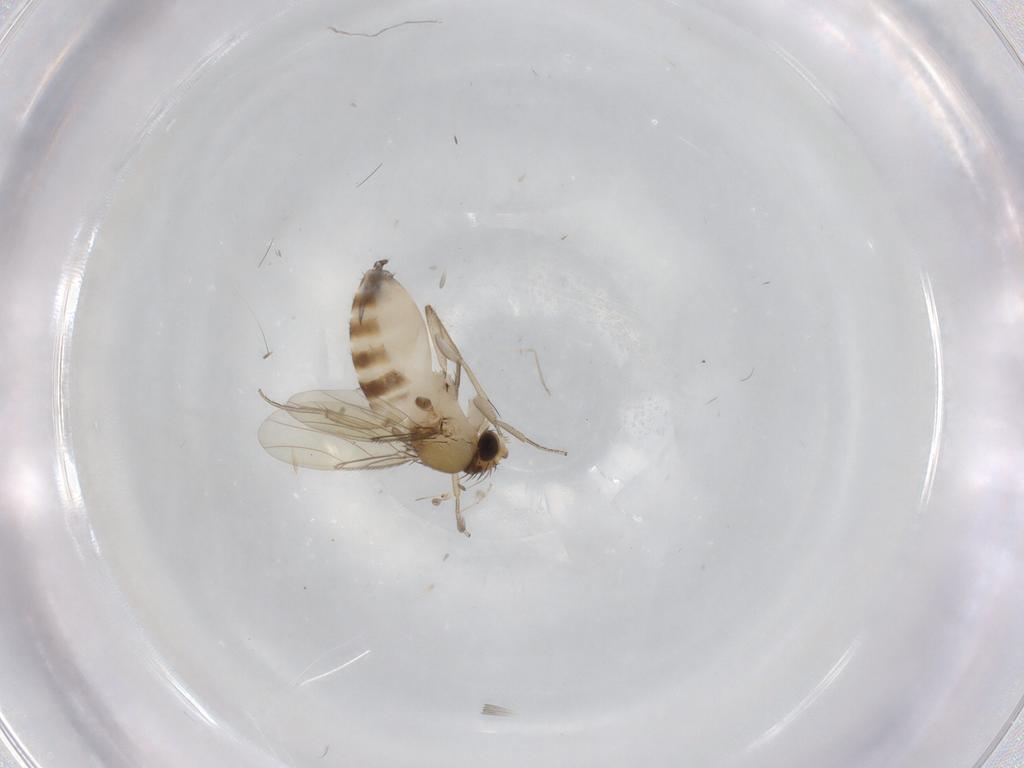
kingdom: Animalia
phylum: Arthropoda
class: Insecta
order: Diptera
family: Phoridae
